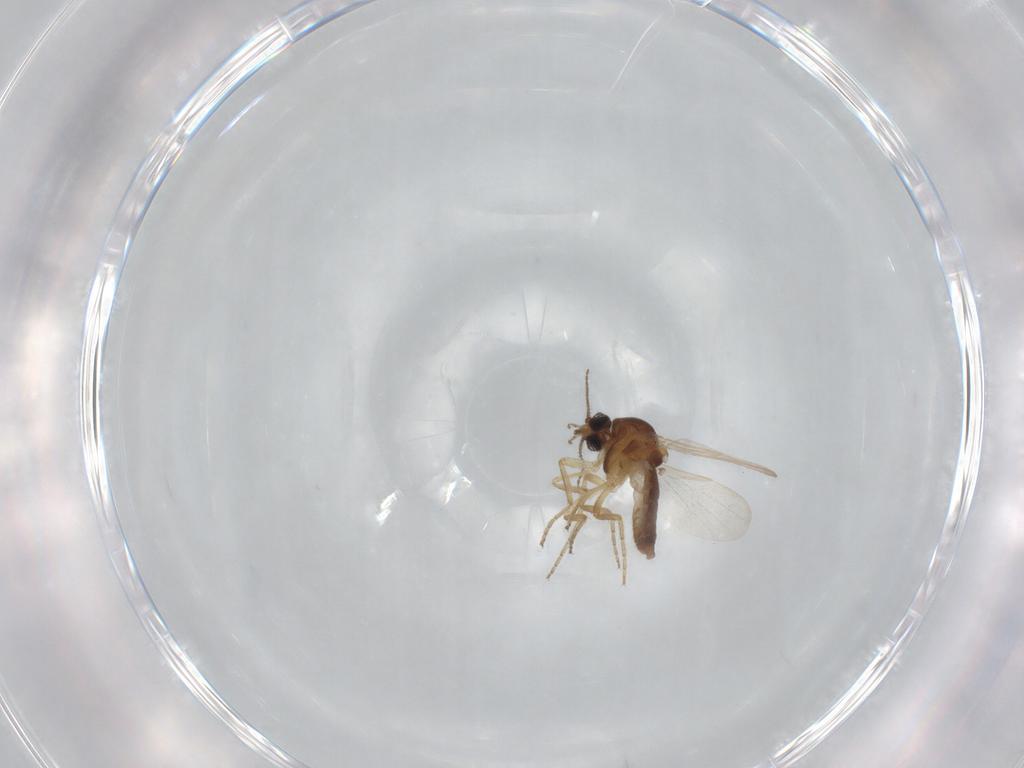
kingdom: Animalia
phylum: Arthropoda
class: Insecta
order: Diptera
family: Ceratopogonidae
